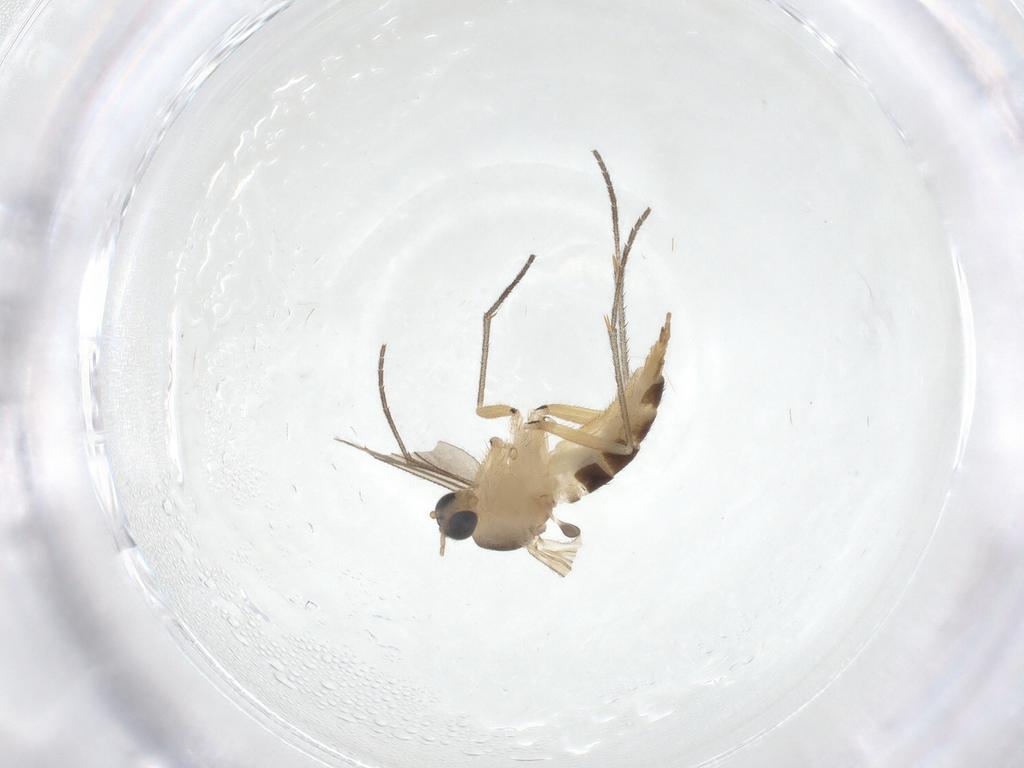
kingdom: Animalia
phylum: Arthropoda
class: Insecta
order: Diptera
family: Sciaridae
